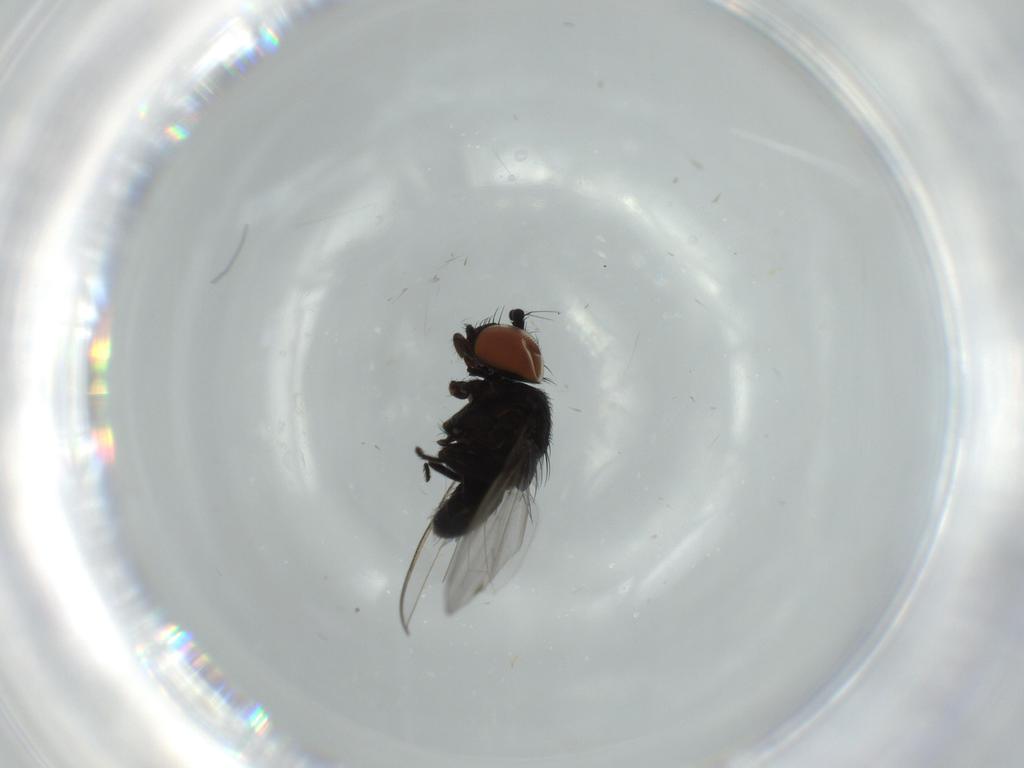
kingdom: Animalia
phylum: Arthropoda
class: Insecta
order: Diptera
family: Milichiidae
